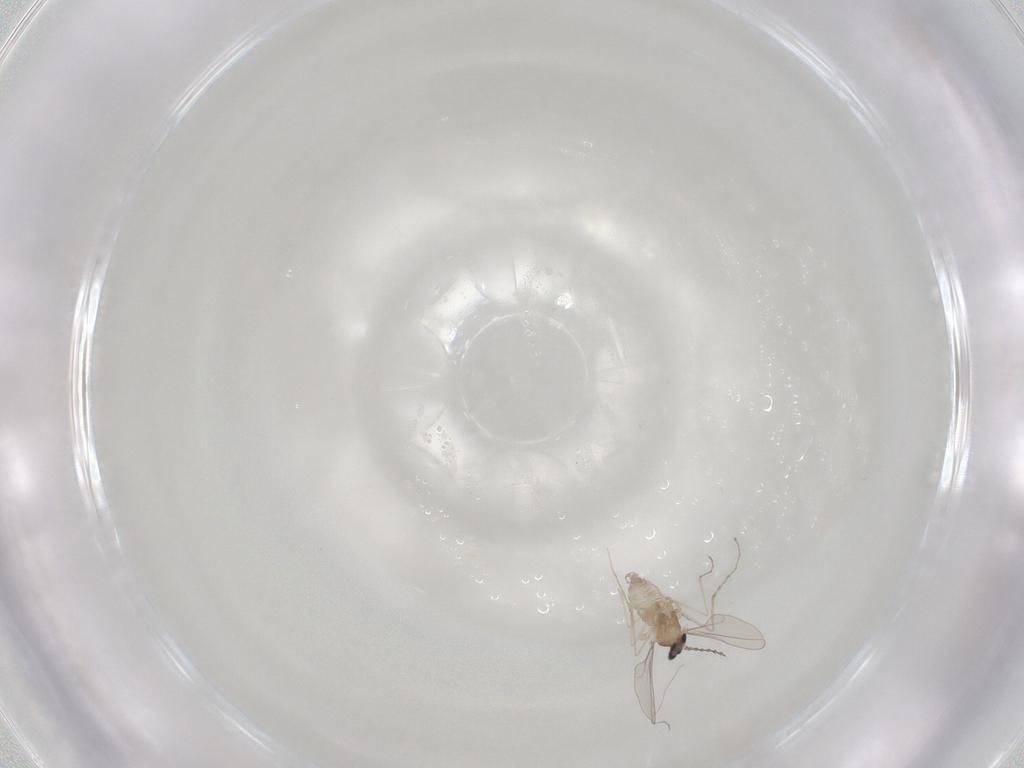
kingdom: Animalia
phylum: Arthropoda
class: Insecta
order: Diptera
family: Cecidomyiidae
